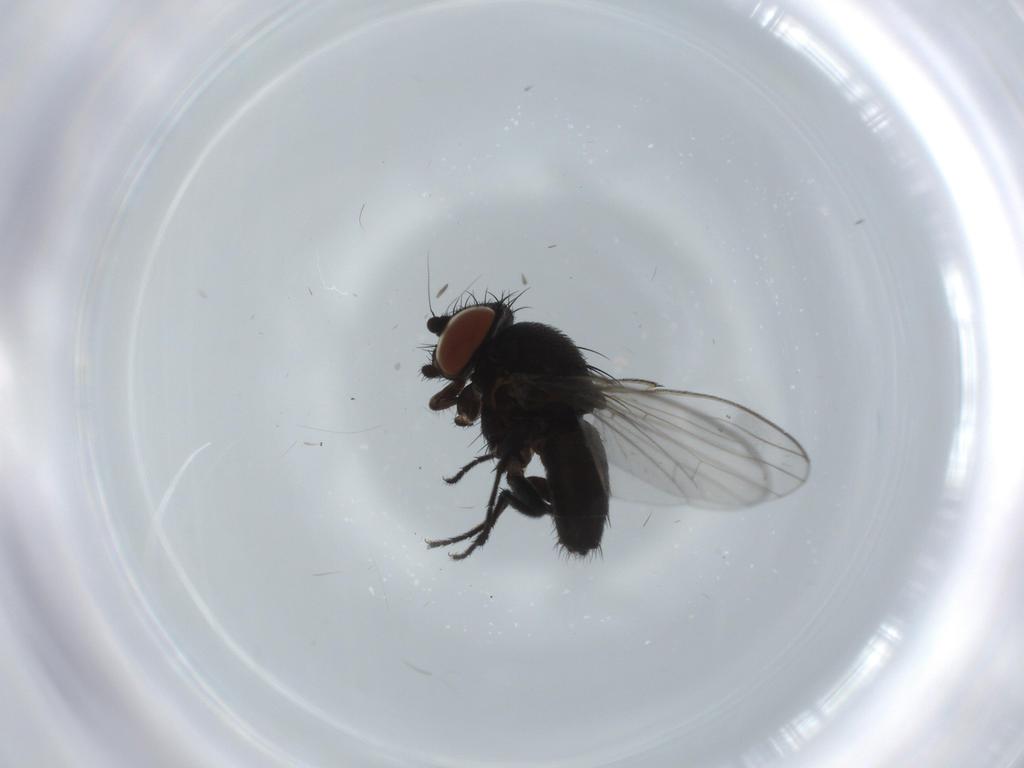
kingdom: Animalia
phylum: Arthropoda
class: Insecta
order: Diptera
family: Milichiidae
